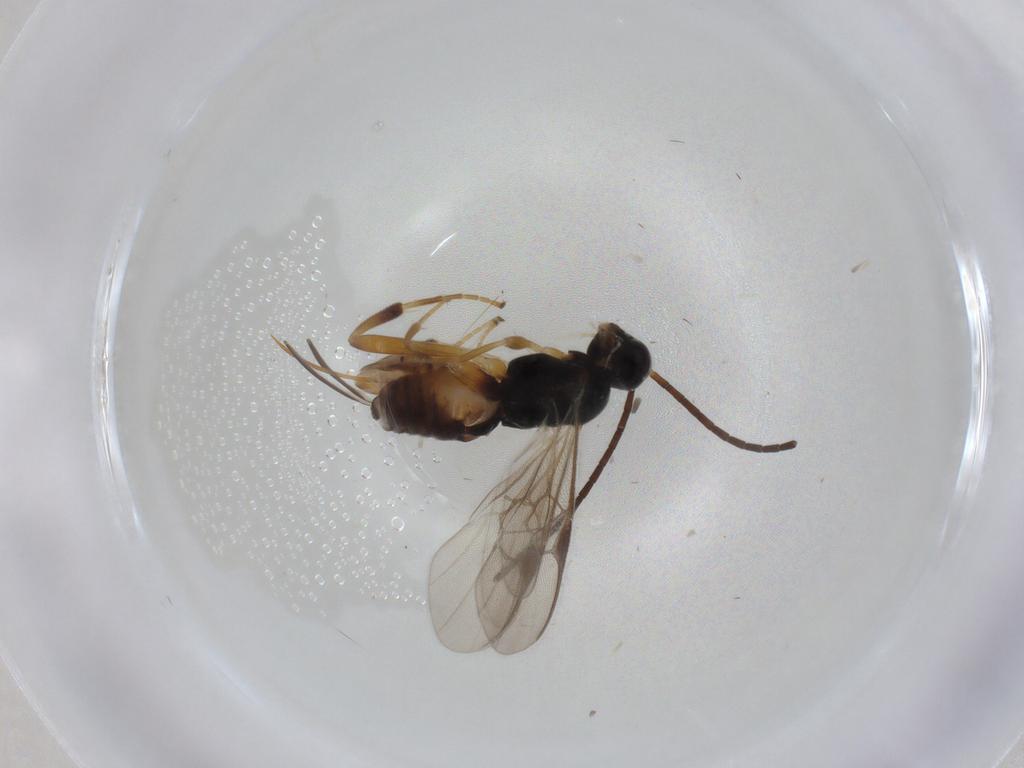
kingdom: Animalia
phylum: Arthropoda
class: Insecta
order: Hymenoptera
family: Braconidae
